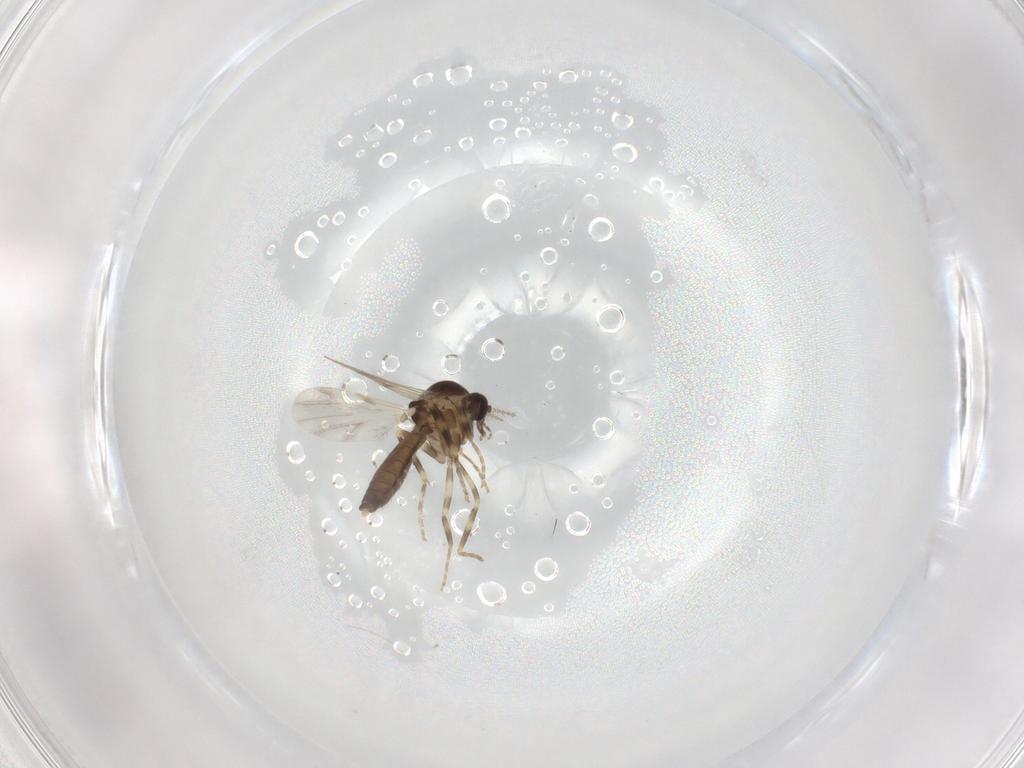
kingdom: Animalia
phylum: Arthropoda
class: Insecta
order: Diptera
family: Ceratopogonidae
